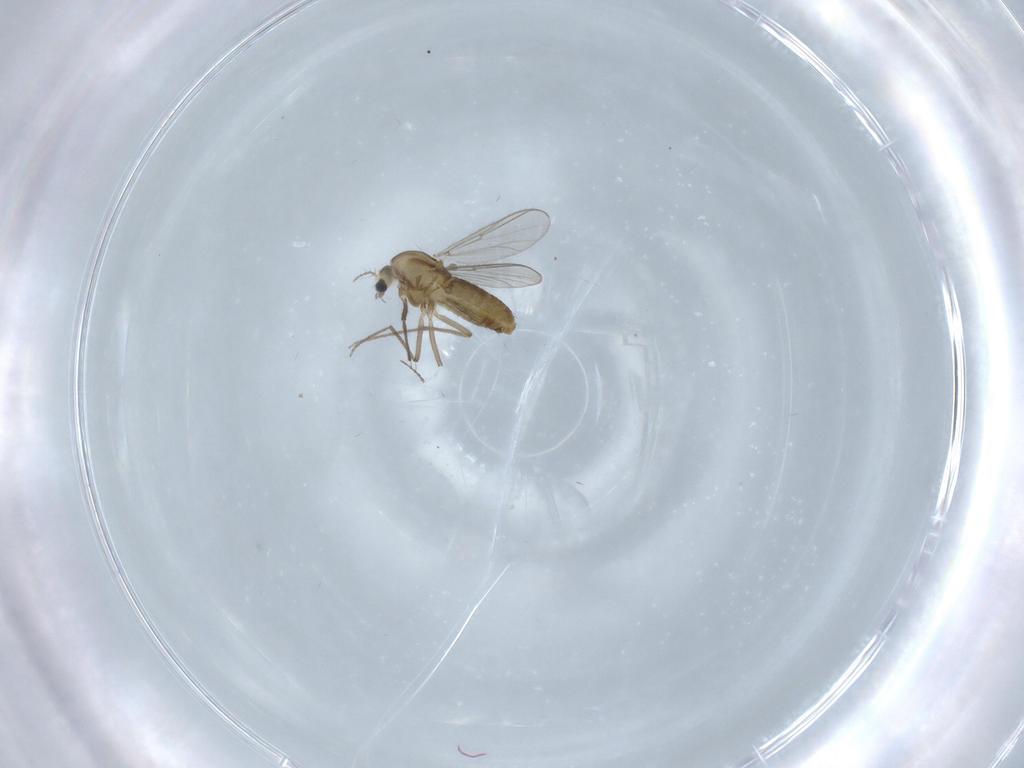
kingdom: Animalia
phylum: Arthropoda
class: Insecta
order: Diptera
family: Chironomidae
